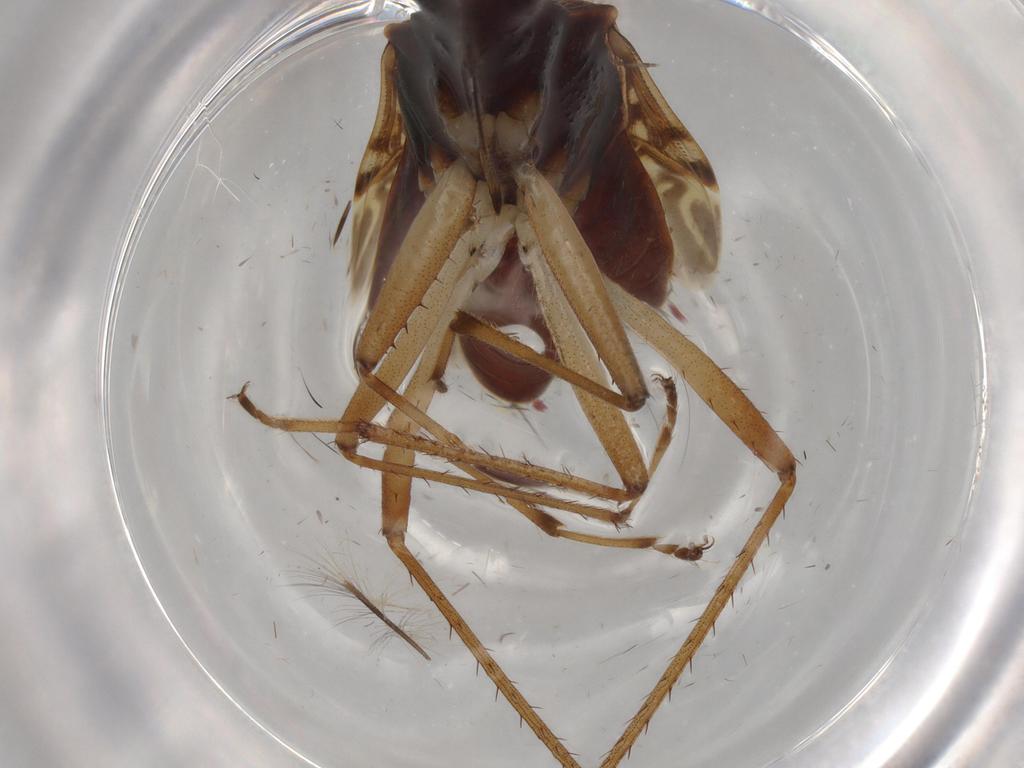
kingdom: Animalia
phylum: Arthropoda
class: Insecta
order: Hemiptera
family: Rhyparochromidae
